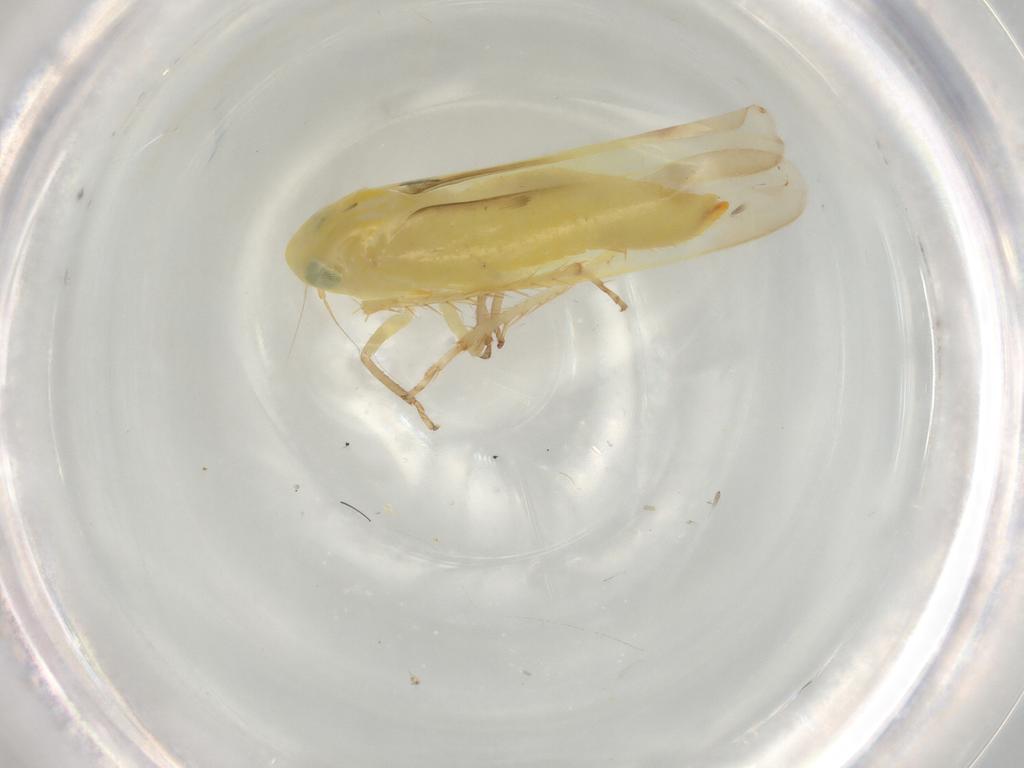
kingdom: Animalia
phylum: Arthropoda
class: Insecta
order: Hemiptera
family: Cicadellidae
